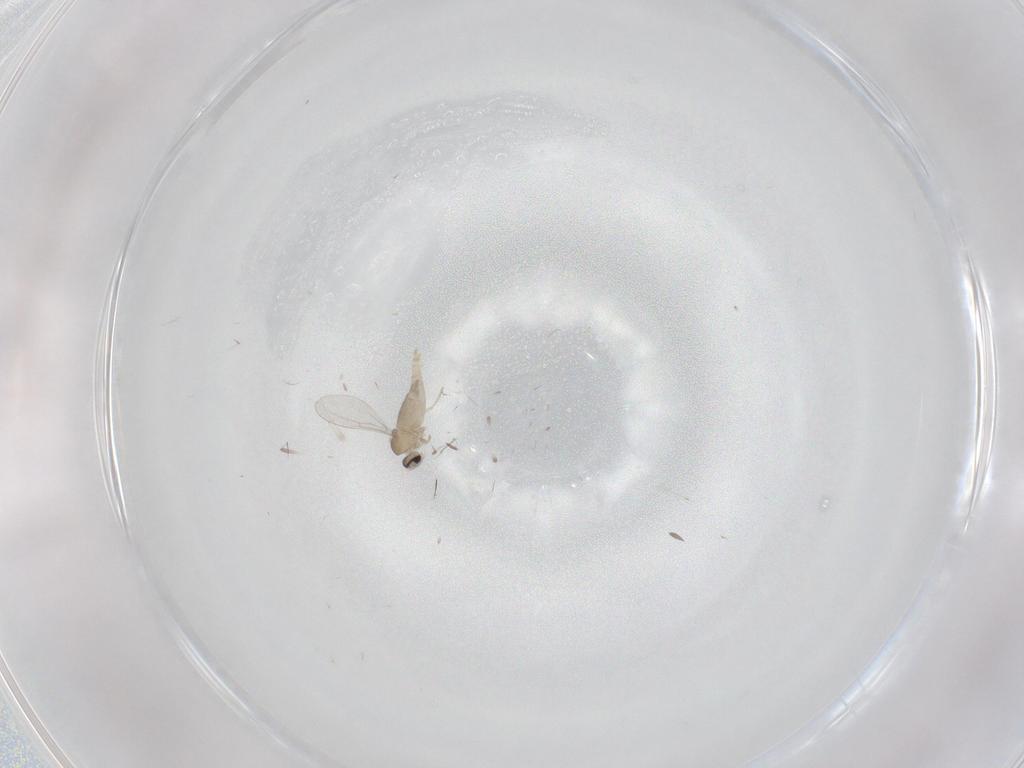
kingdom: Animalia
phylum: Arthropoda
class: Insecta
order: Diptera
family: Cecidomyiidae
